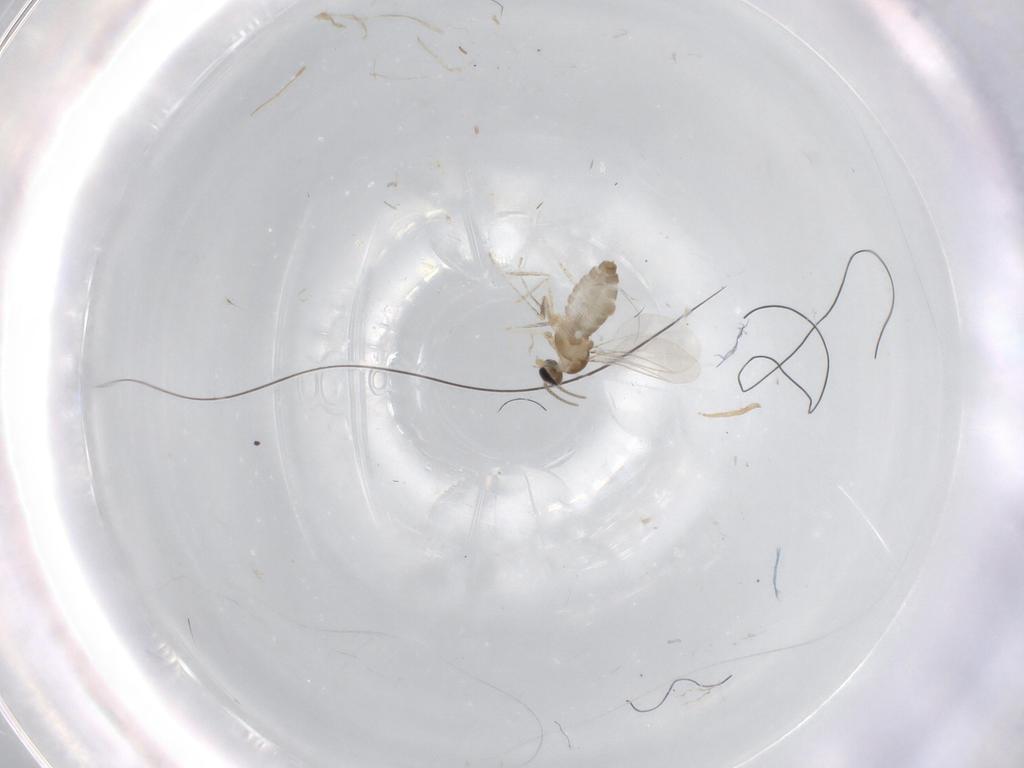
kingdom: Animalia
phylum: Arthropoda
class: Insecta
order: Diptera
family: Cecidomyiidae
